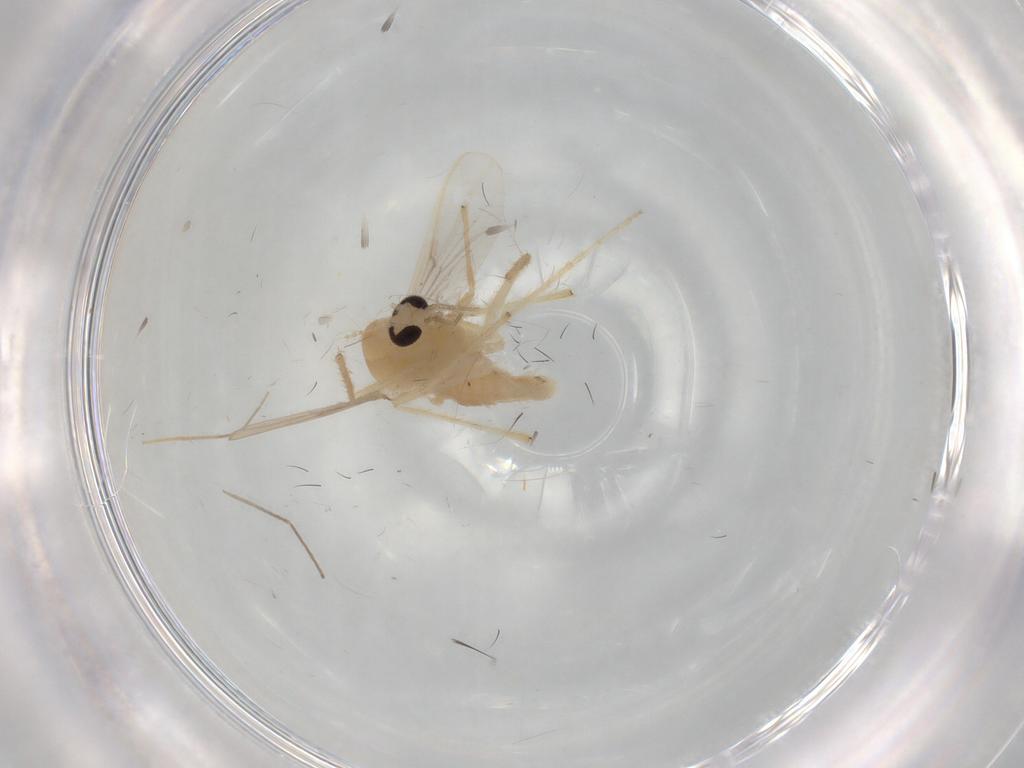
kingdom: Animalia
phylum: Arthropoda
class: Insecta
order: Diptera
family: Chironomidae
